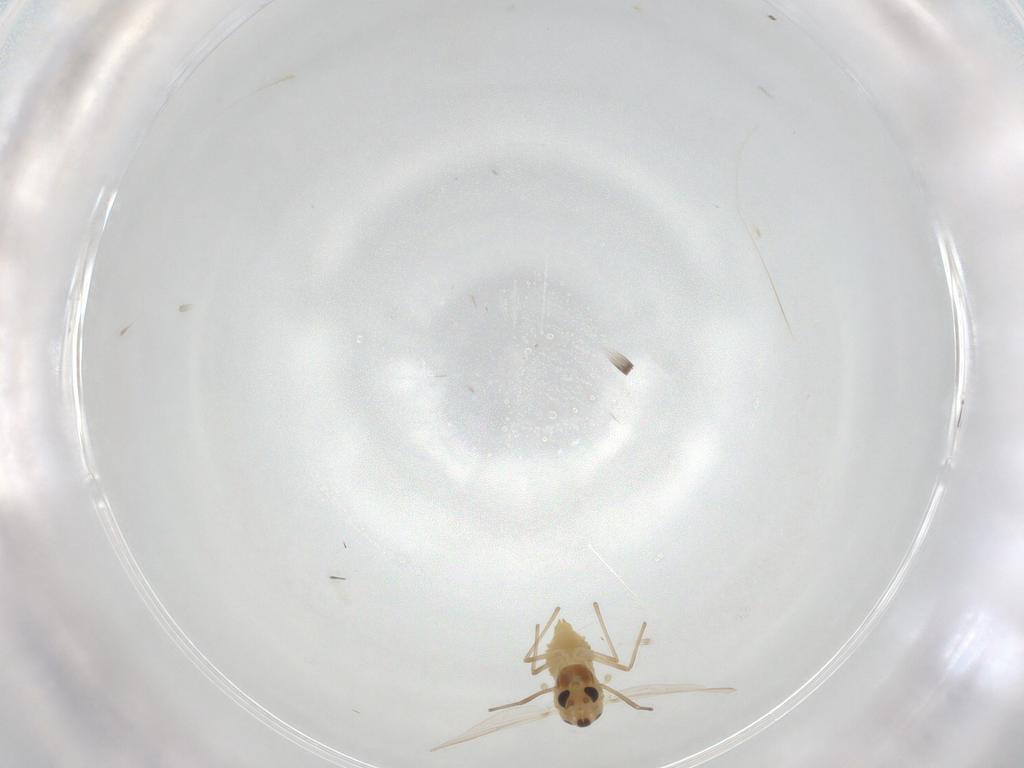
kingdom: Animalia
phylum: Arthropoda
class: Insecta
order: Diptera
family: Chironomidae
